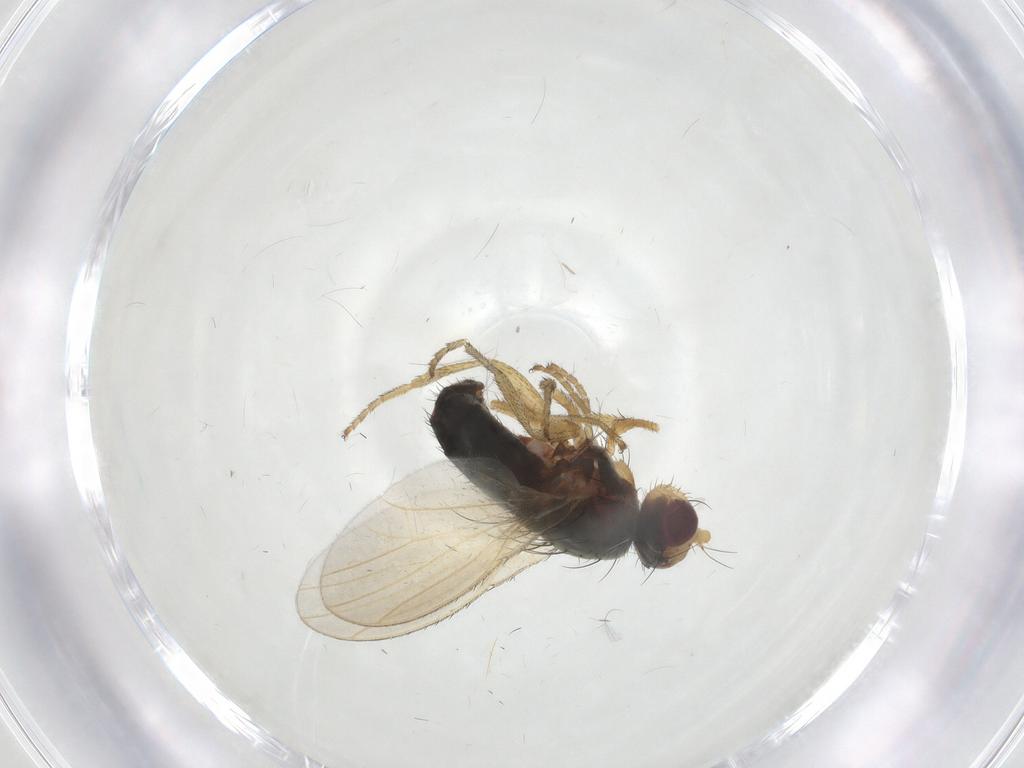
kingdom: Animalia
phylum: Arthropoda
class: Insecta
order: Diptera
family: Heleomyzidae
